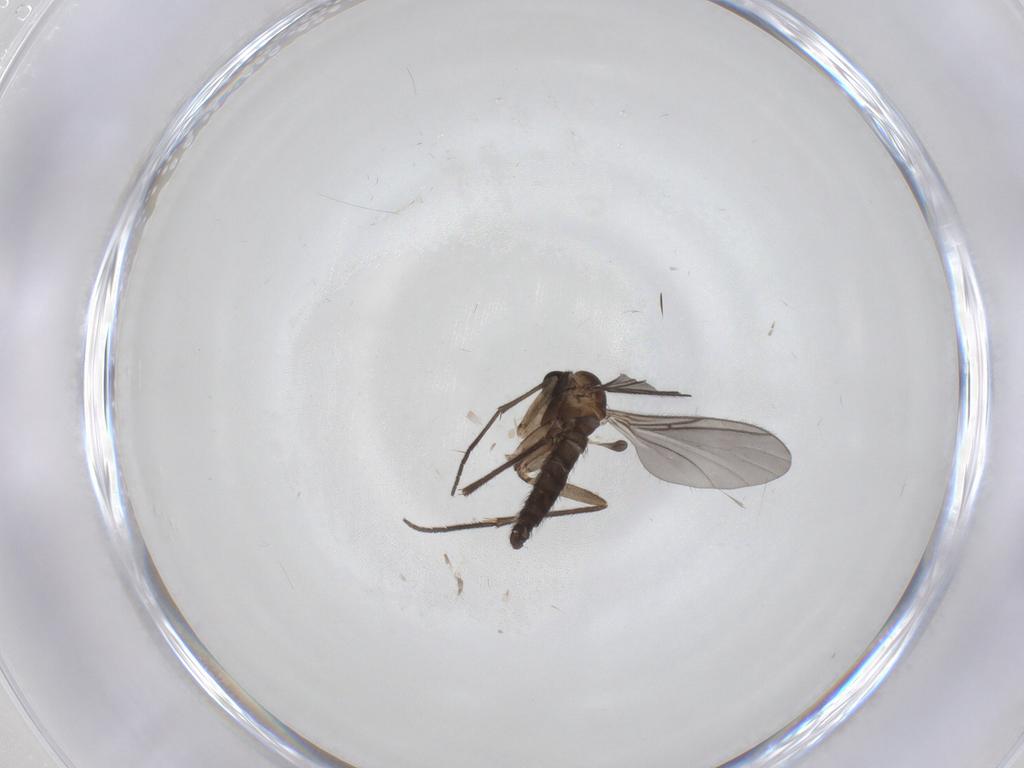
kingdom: Animalia
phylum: Arthropoda
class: Insecta
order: Diptera
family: Sciaridae
